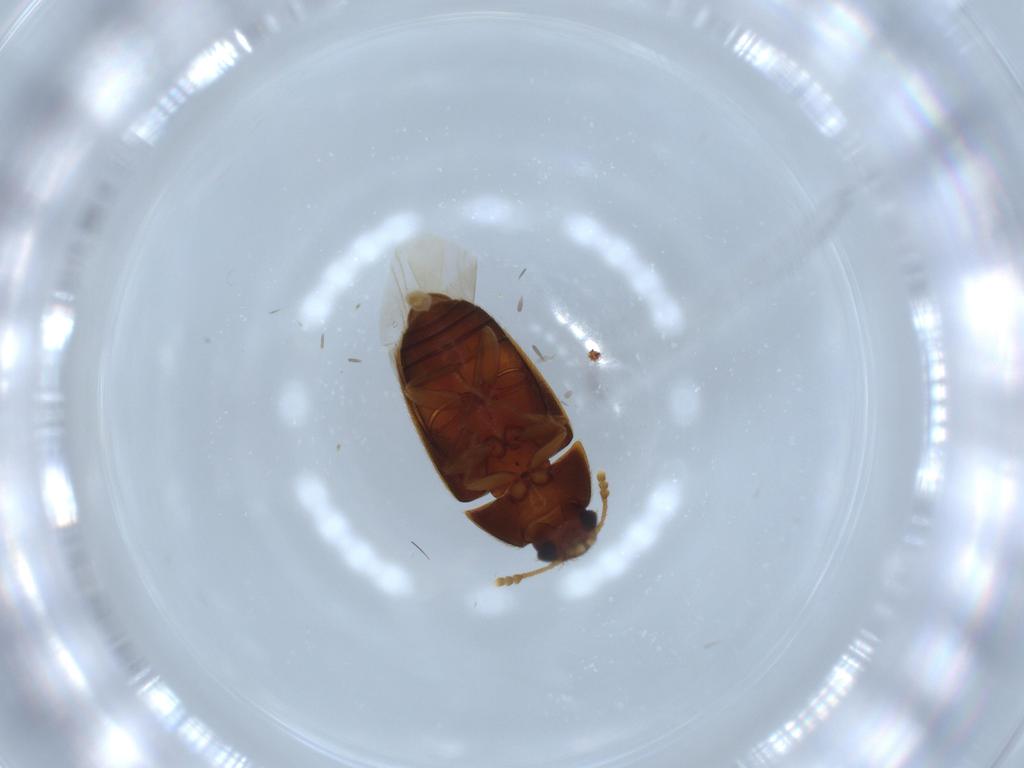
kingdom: Animalia
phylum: Arthropoda
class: Insecta
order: Coleoptera
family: Mycetophagidae
